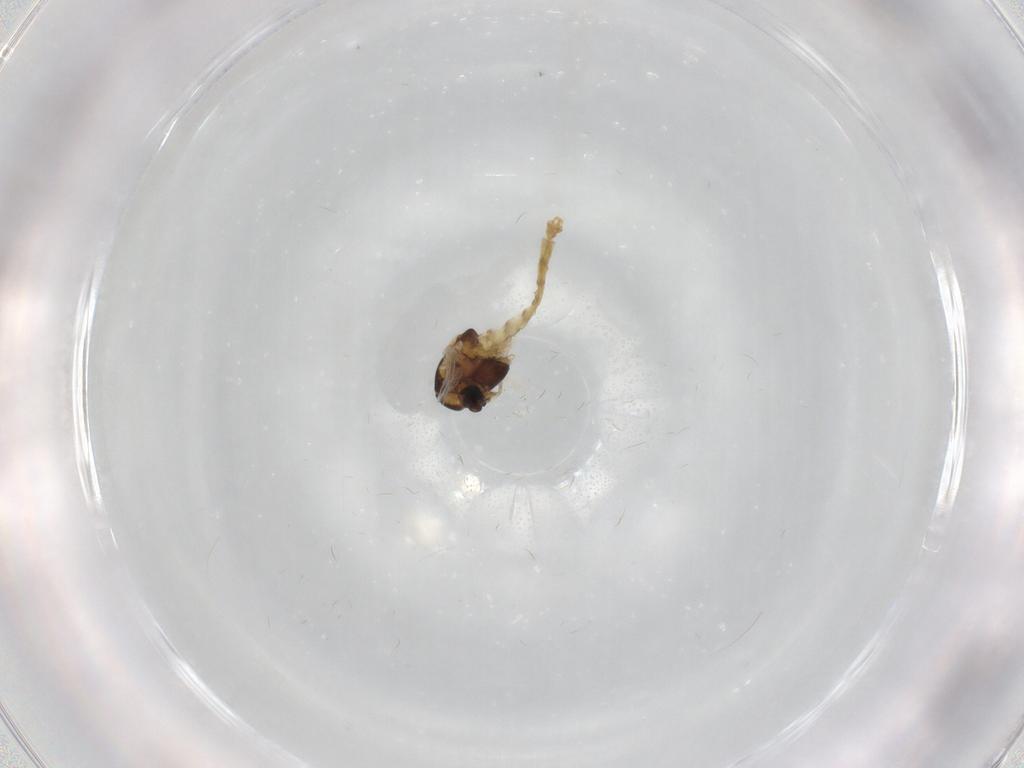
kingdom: Animalia
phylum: Arthropoda
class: Insecta
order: Diptera
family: Chironomidae
